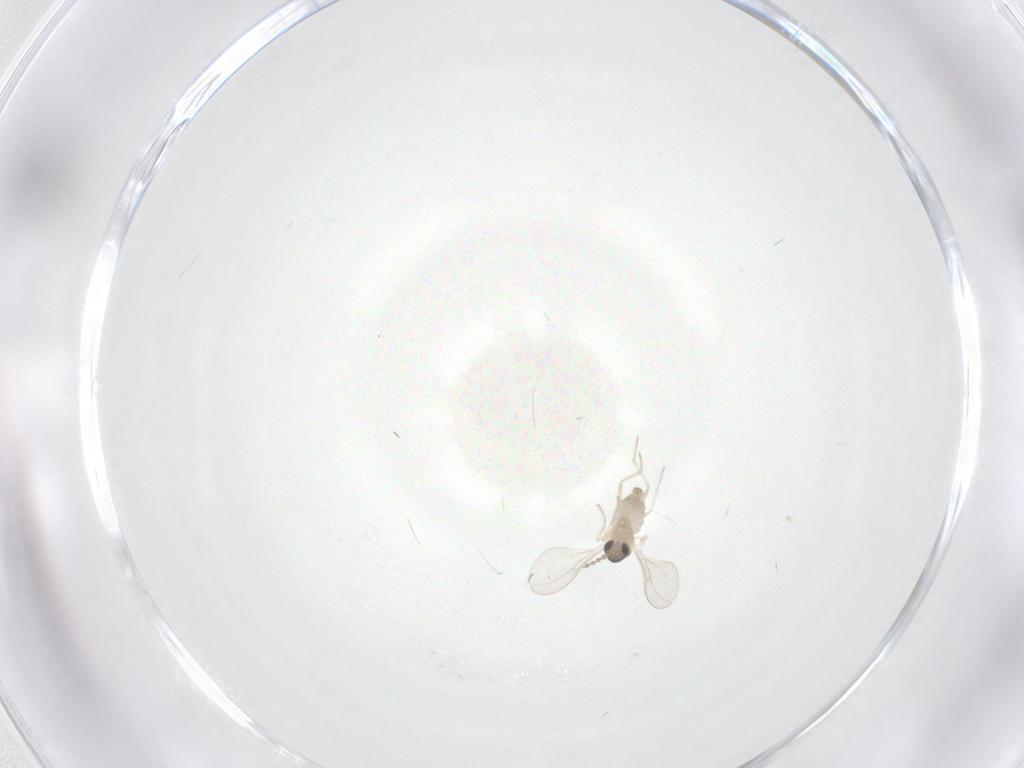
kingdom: Animalia
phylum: Arthropoda
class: Insecta
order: Diptera
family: Cecidomyiidae
